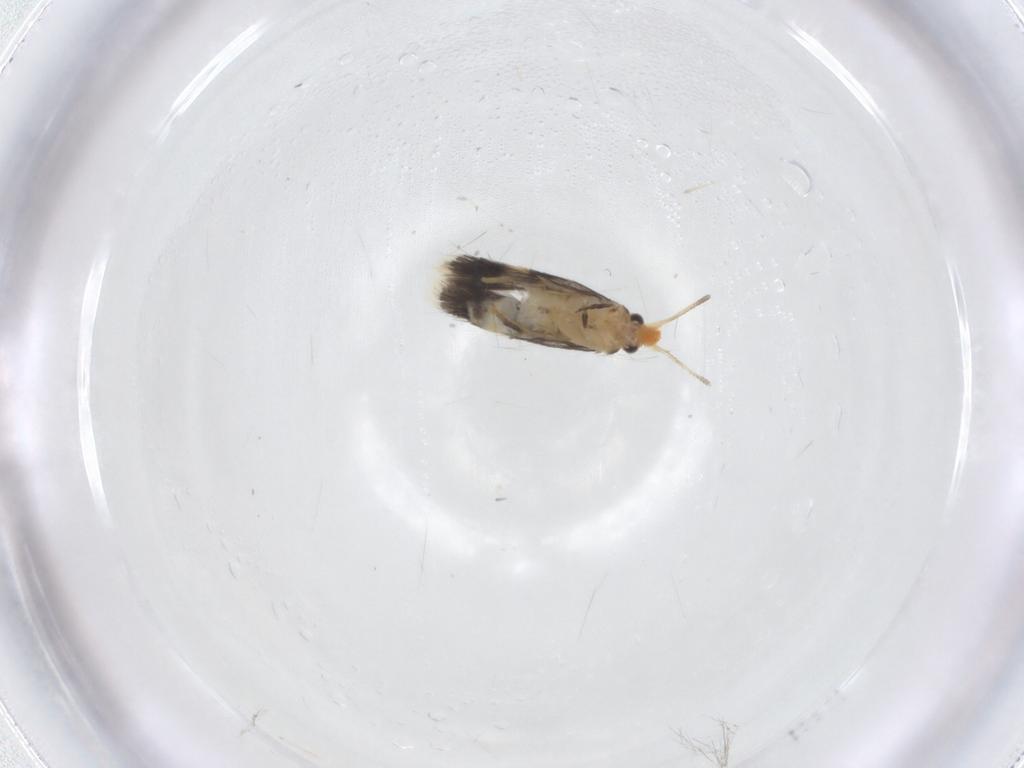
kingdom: Animalia
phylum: Arthropoda
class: Insecta
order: Lepidoptera
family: Nepticulidae
